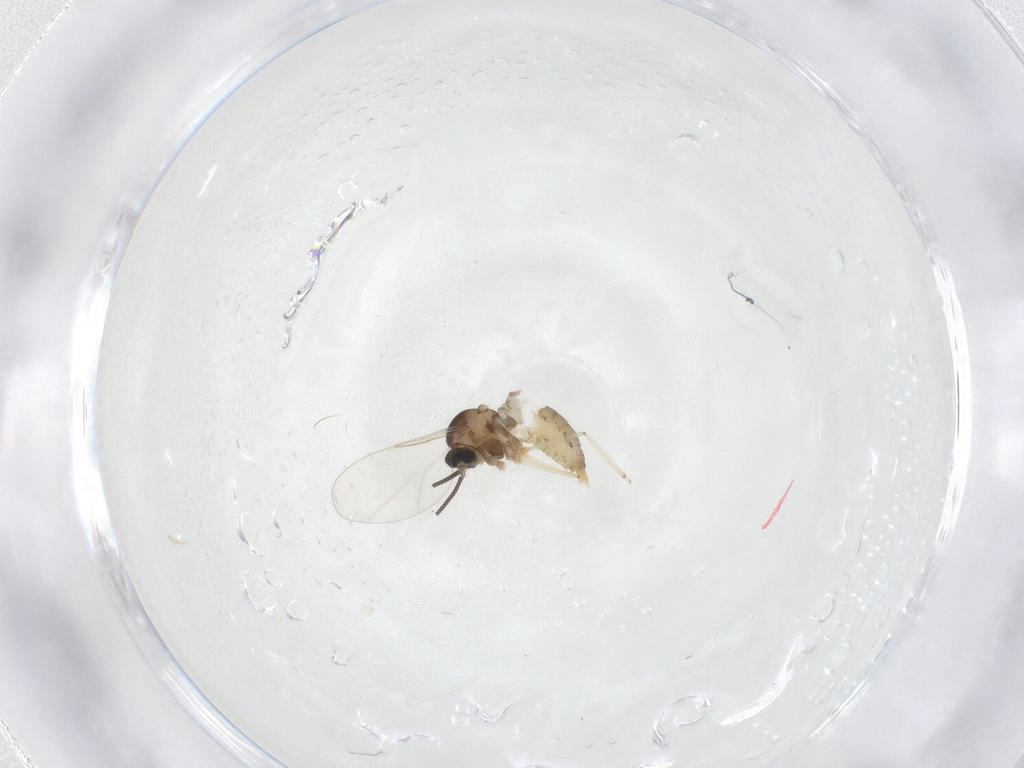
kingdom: Animalia
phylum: Arthropoda
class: Insecta
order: Diptera
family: Cecidomyiidae
